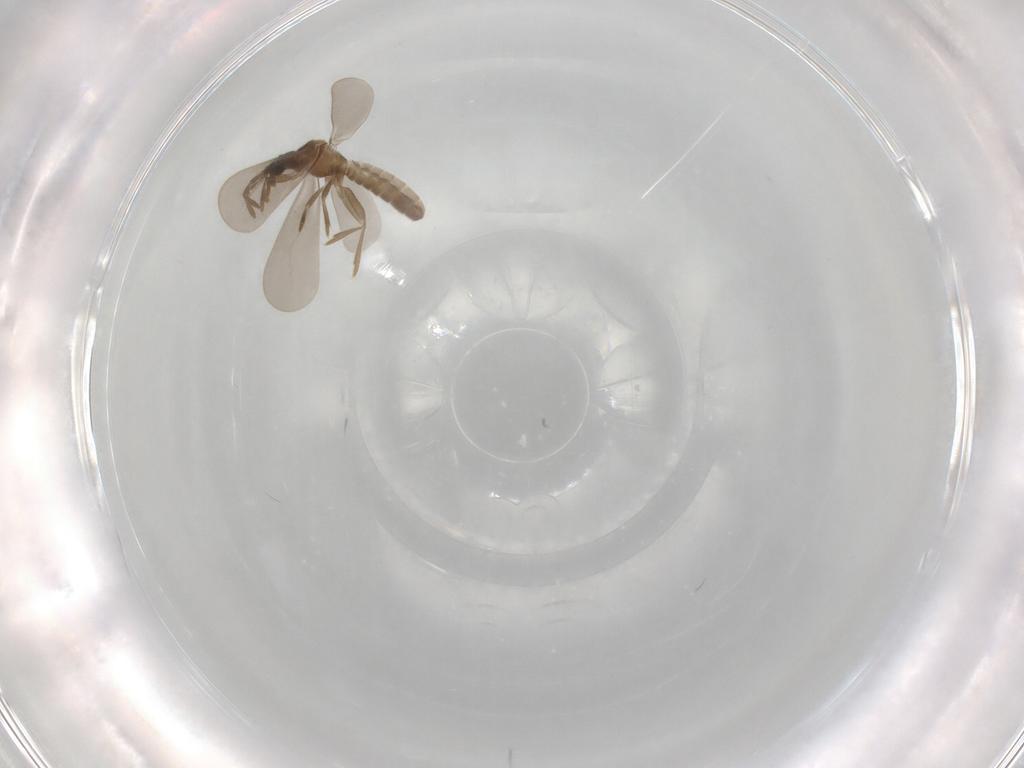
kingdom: Animalia
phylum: Arthropoda
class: Insecta
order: Hemiptera
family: Enicocephalidae
